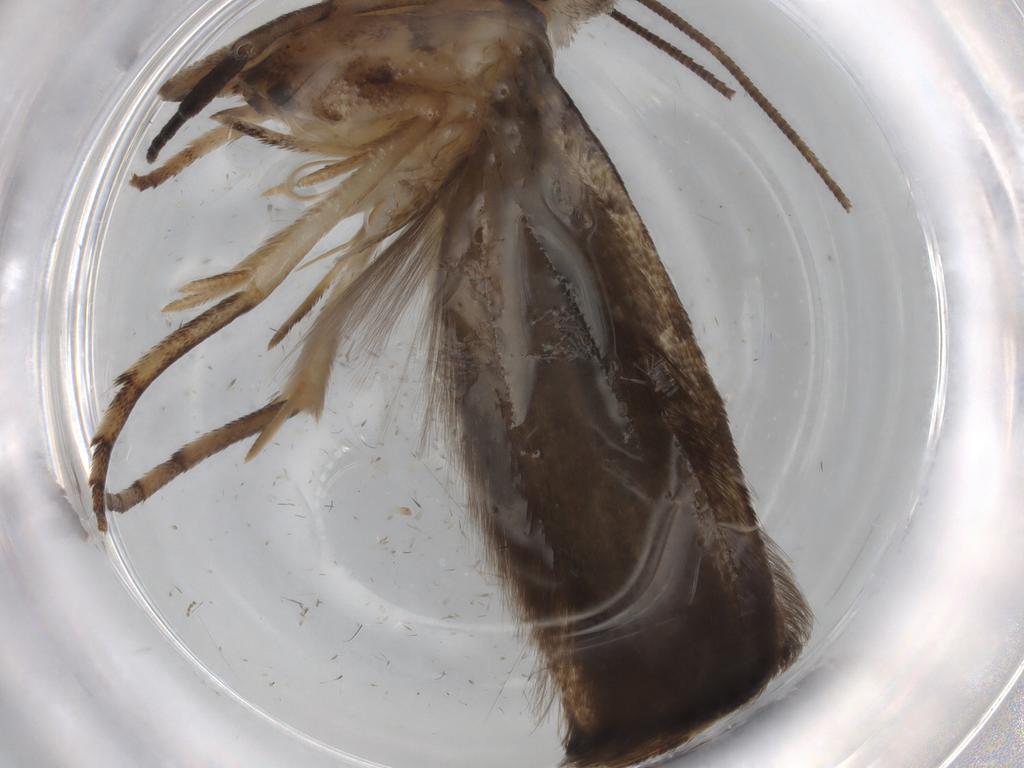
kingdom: Animalia
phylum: Arthropoda
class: Insecta
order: Lepidoptera
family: Yponomeutidae
